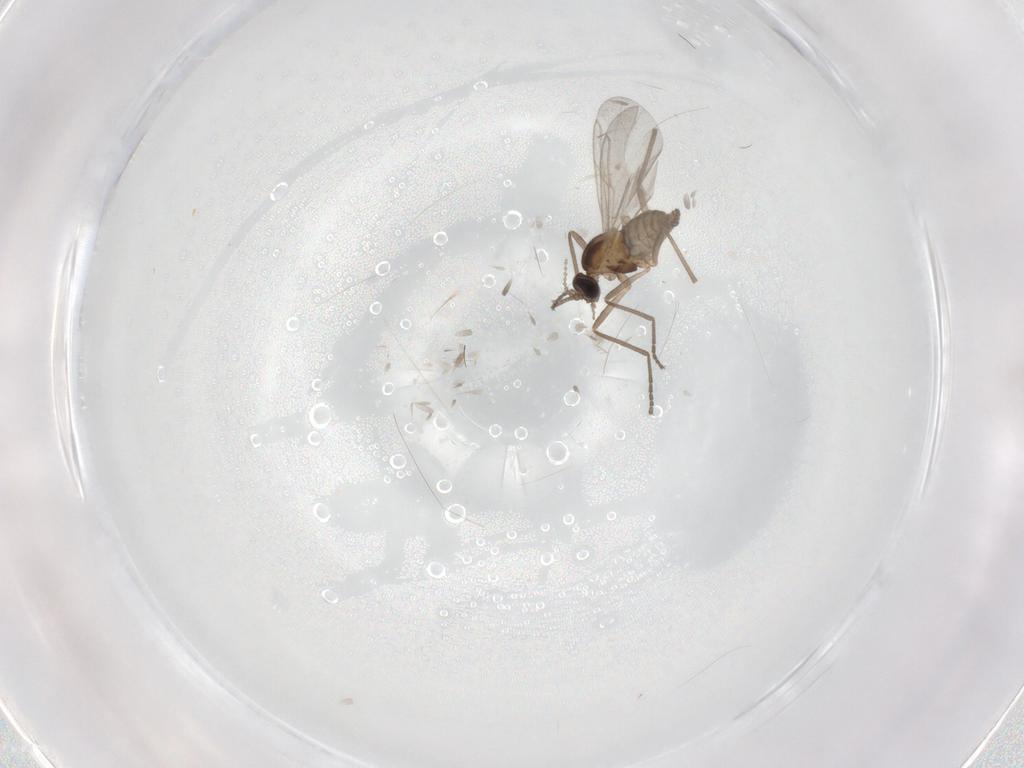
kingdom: Animalia
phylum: Arthropoda
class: Insecta
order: Diptera
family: Cecidomyiidae
